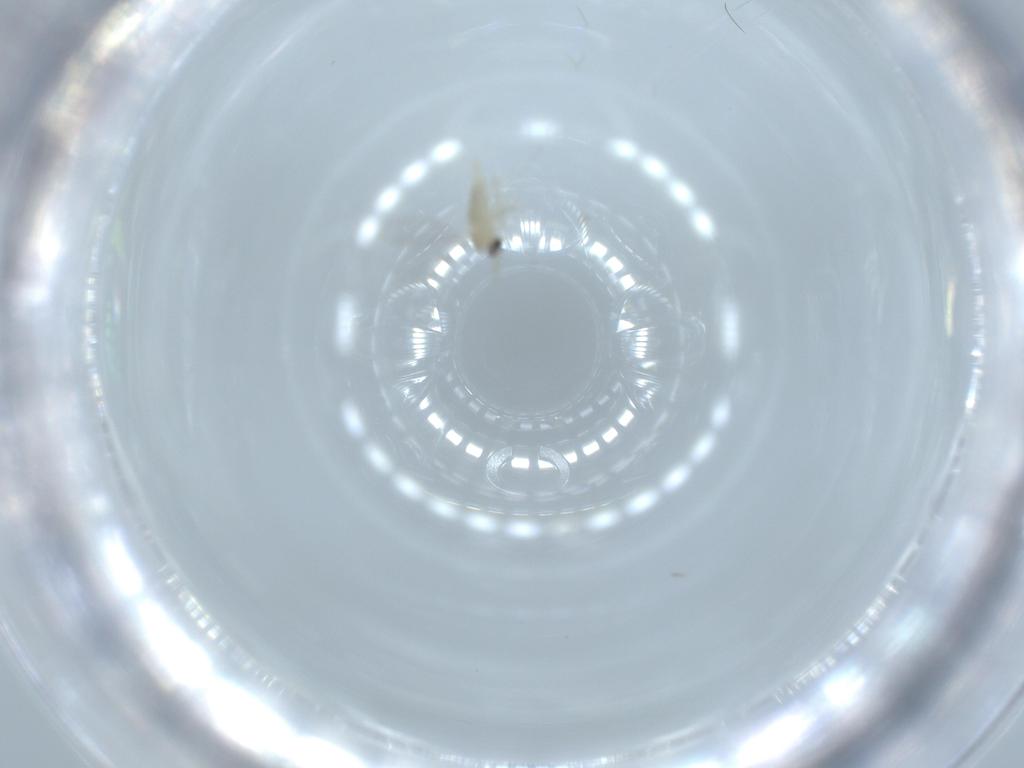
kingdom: Animalia
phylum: Arthropoda
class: Insecta
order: Diptera
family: Cecidomyiidae
